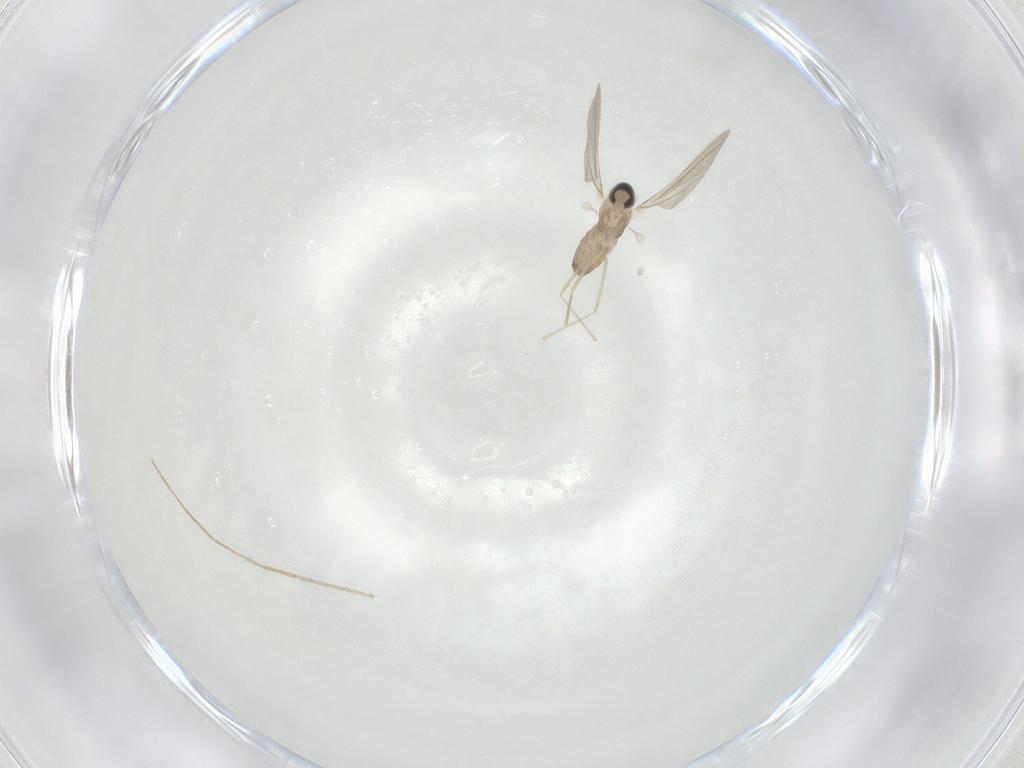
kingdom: Animalia
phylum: Arthropoda
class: Insecta
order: Diptera
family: Cecidomyiidae
